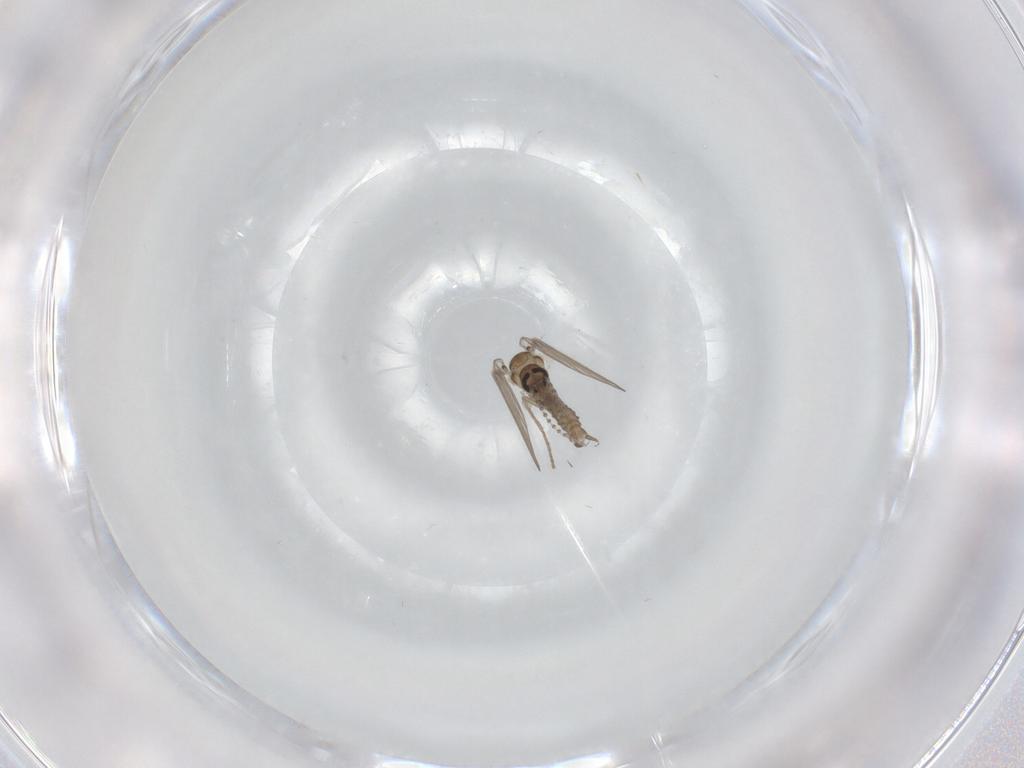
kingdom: Animalia
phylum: Arthropoda
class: Insecta
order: Diptera
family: Psychodidae
